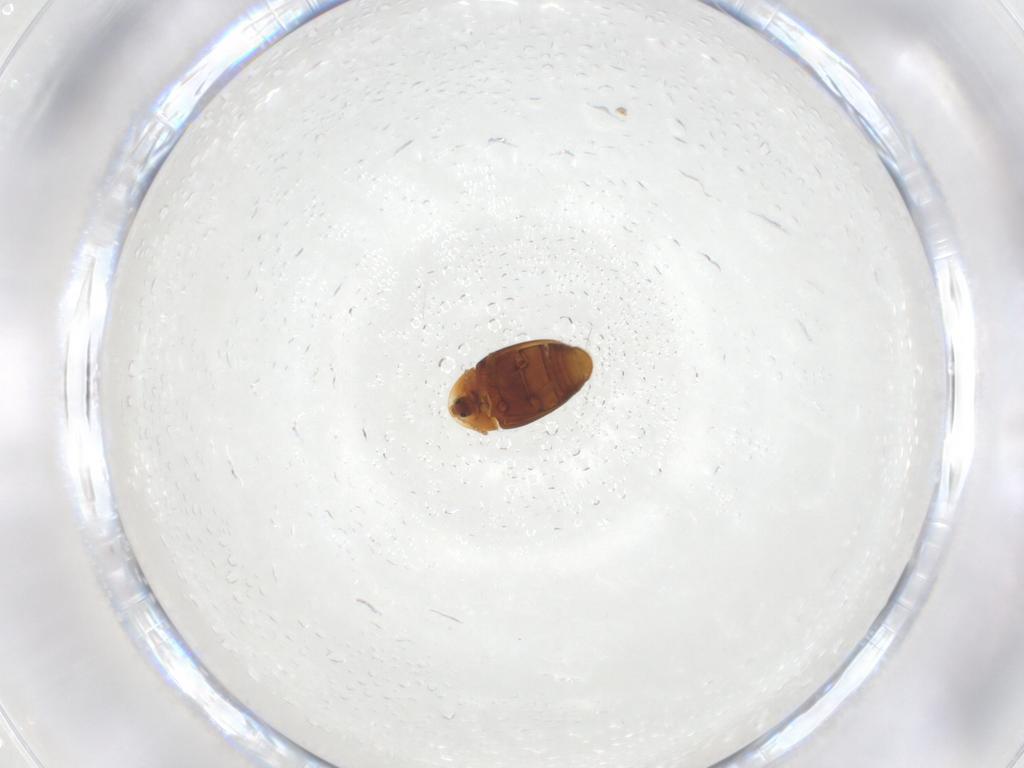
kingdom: Animalia
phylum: Arthropoda
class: Insecta
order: Coleoptera
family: Corylophidae
